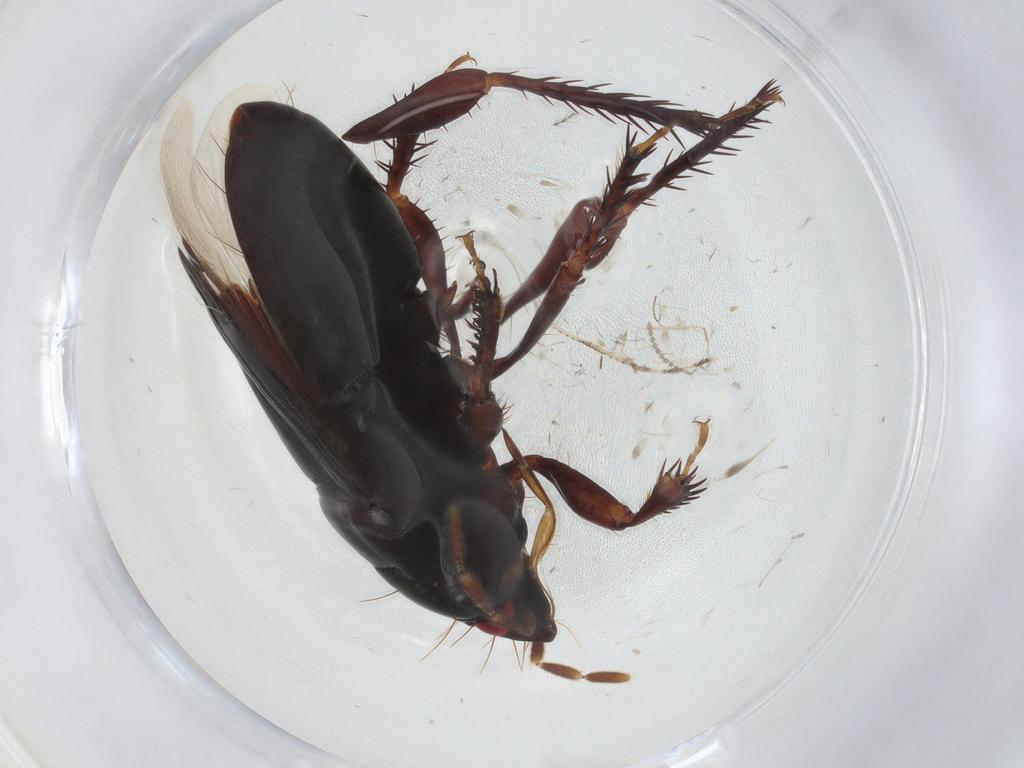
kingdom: Animalia
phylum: Arthropoda
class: Insecta
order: Hemiptera
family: Cydnidae
